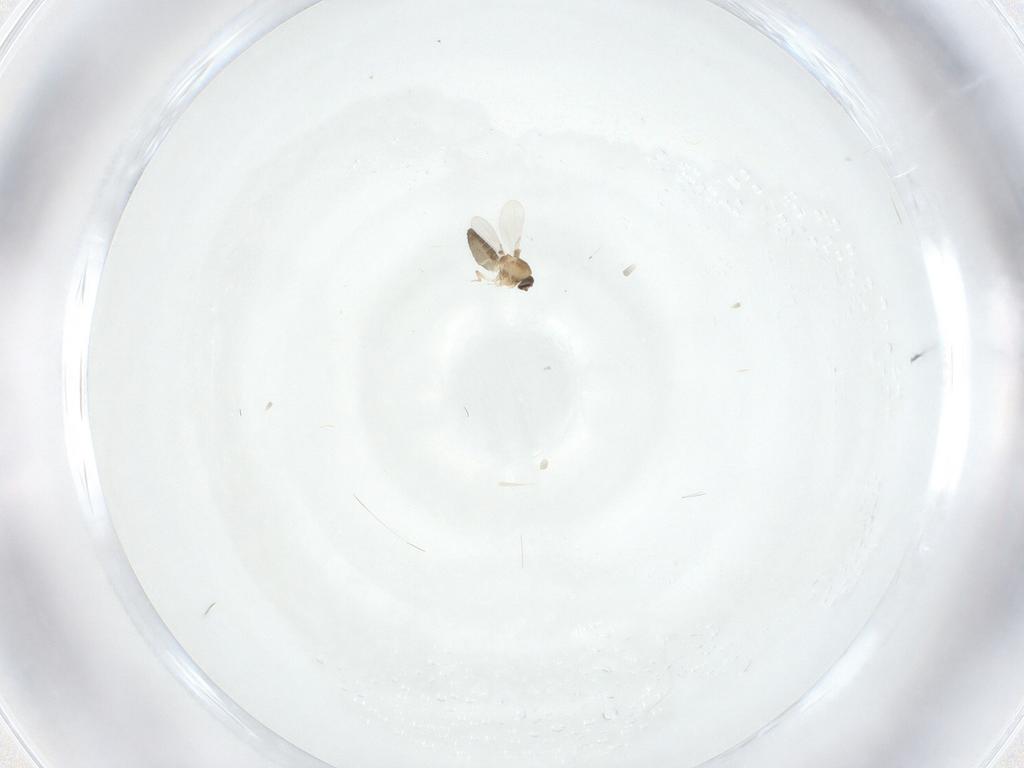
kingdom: Animalia
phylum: Arthropoda
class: Insecta
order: Diptera
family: Ceratopogonidae
